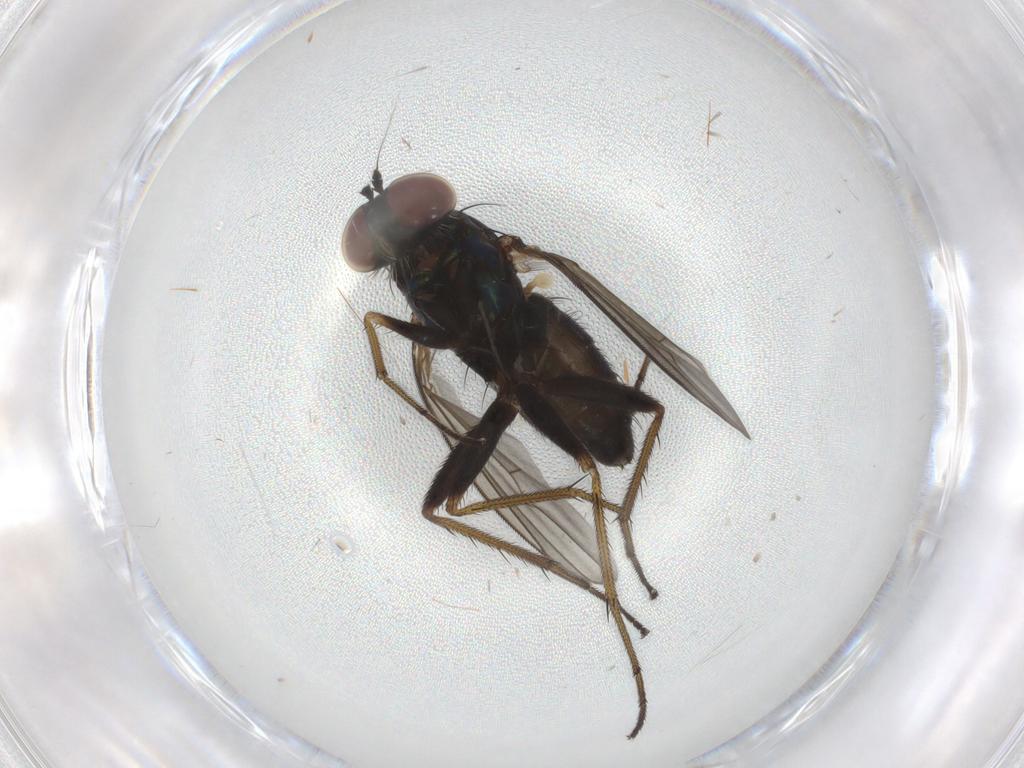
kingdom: Animalia
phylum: Arthropoda
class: Insecta
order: Diptera
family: Dolichopodidae
